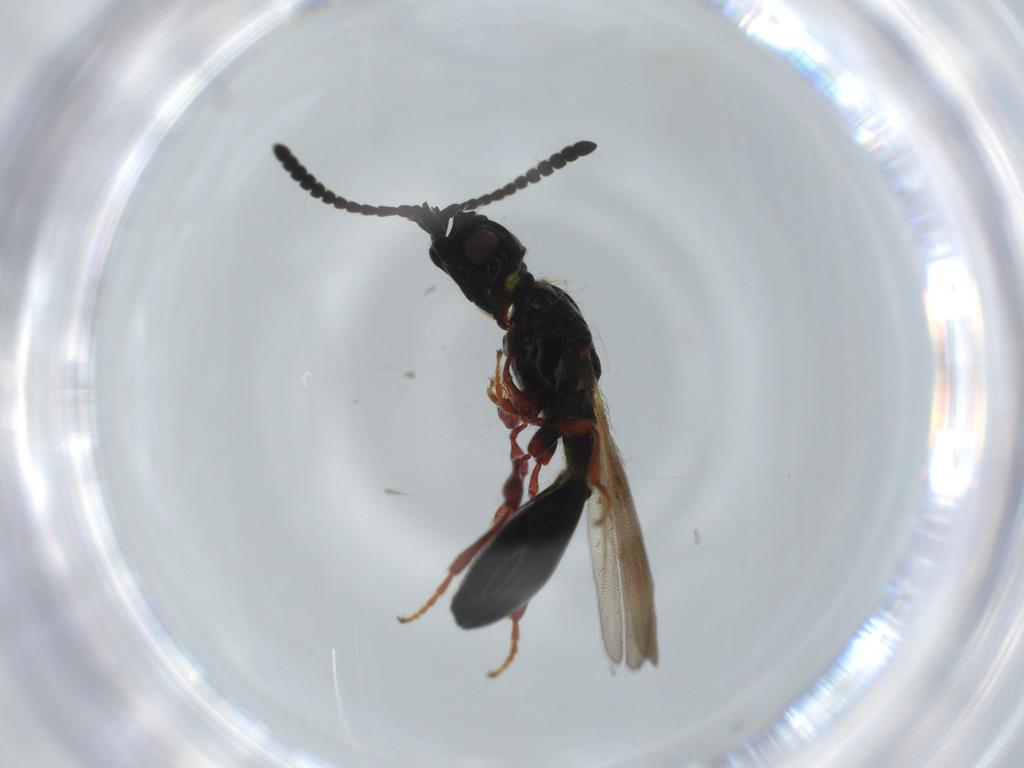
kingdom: Animalia
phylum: Arthropoda
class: Insecta
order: Hymenoptera
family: Diapriidae
